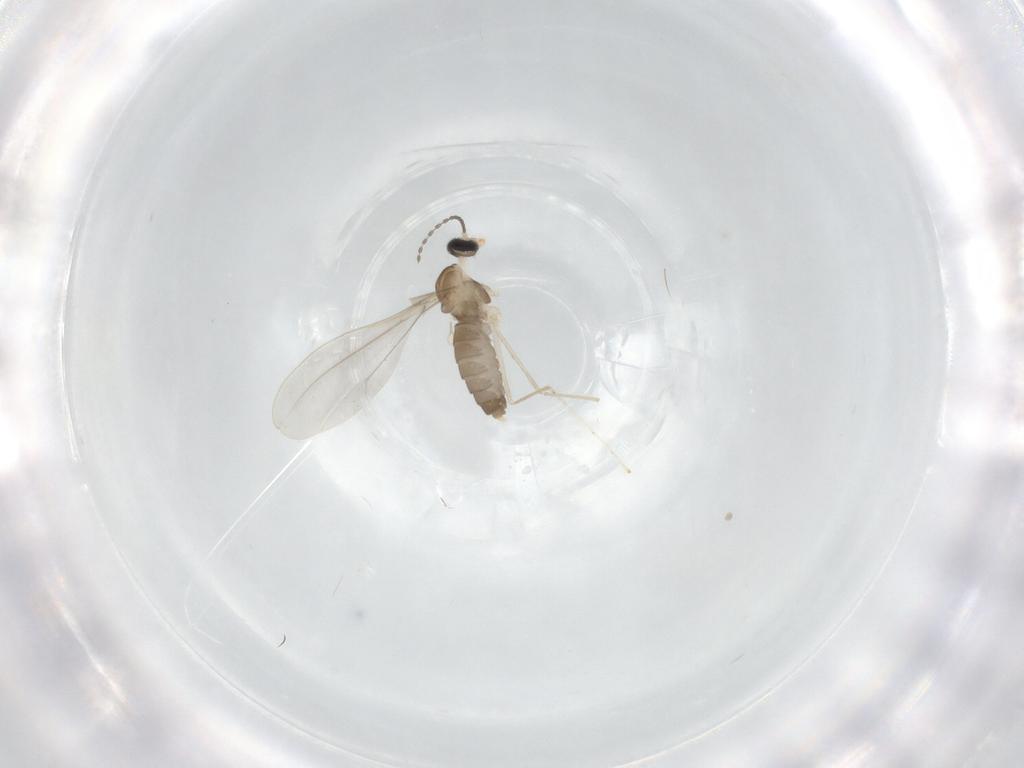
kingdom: Animalia
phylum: Arthropoda
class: Insecta
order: Diptera
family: Cecidomyiidae
